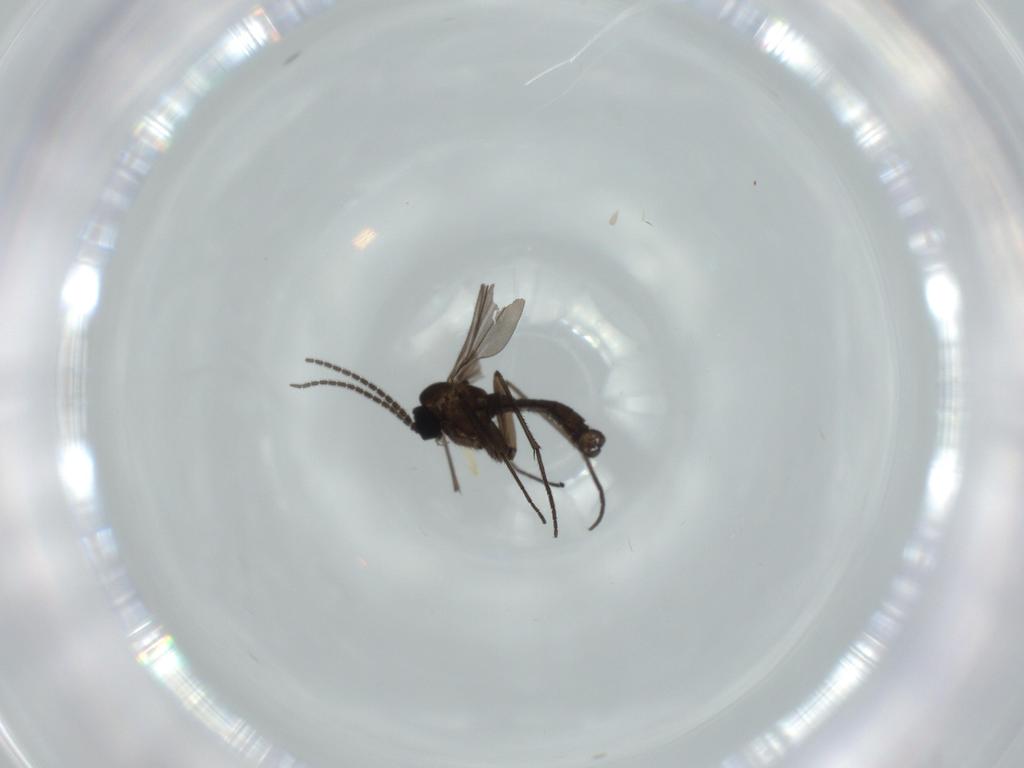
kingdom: Animalia
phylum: Arthropoda
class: Insecta
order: Diptera
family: Sciaridae
